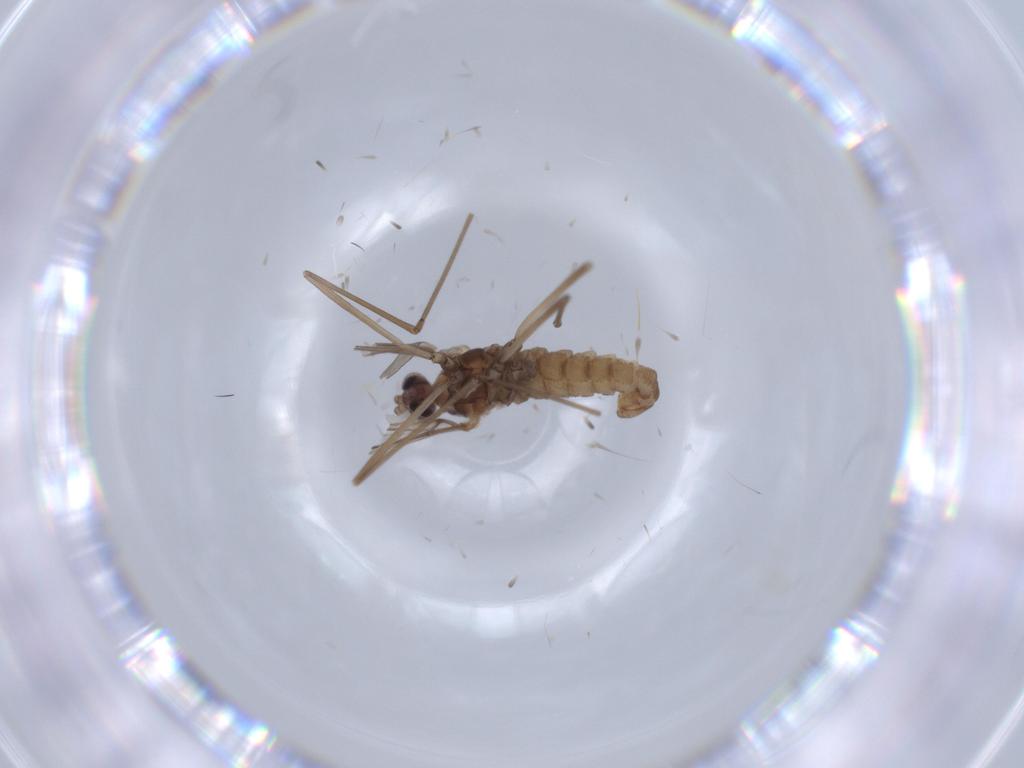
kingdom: Animalia
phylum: Arthropoda
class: Insecta
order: Diptera
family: Cecidomyiidae
